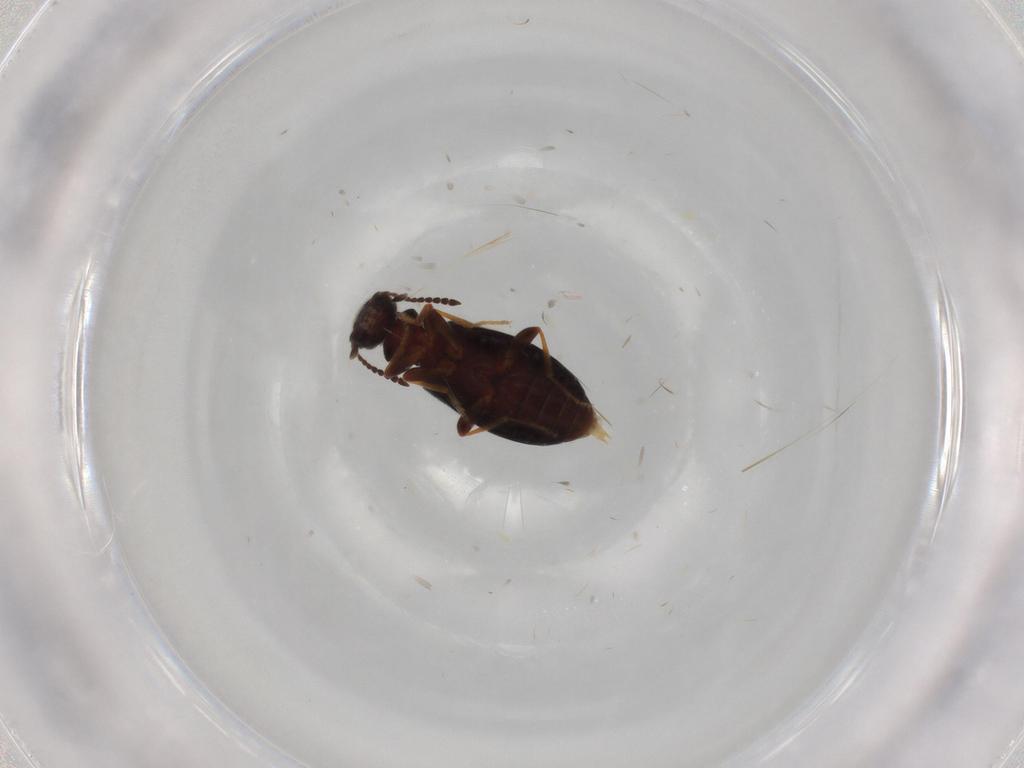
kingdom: Animalia
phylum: Arthropoda
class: Insecta
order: Coleoptera
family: Anthicidae
